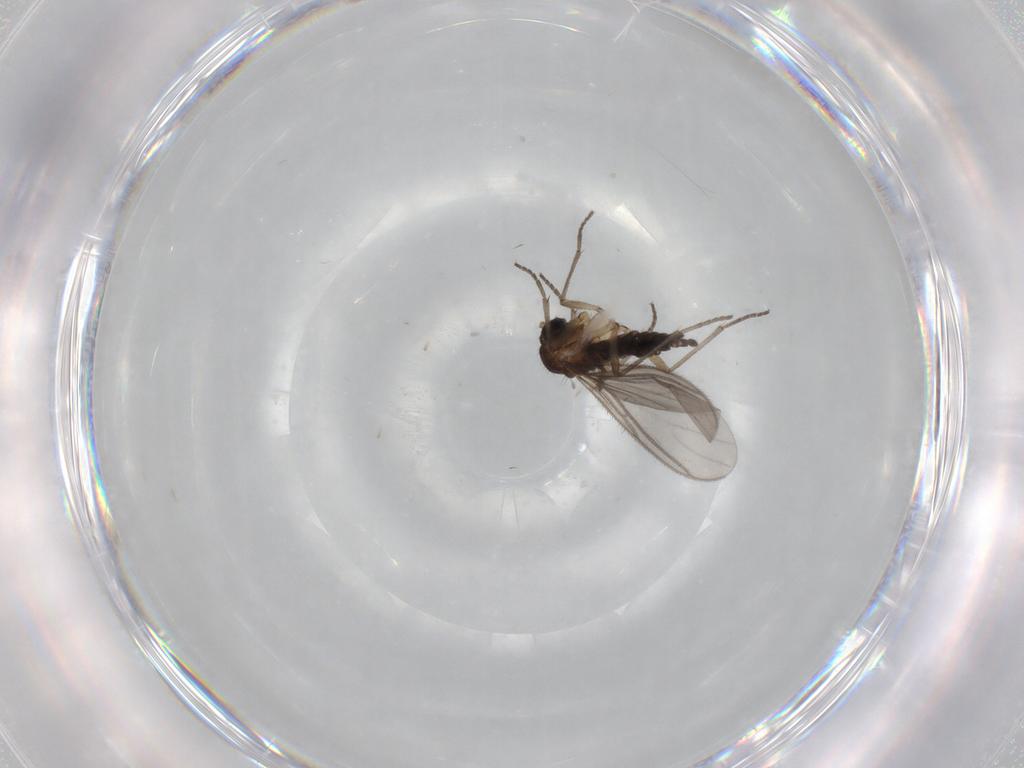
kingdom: Animalia
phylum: Arthropoda
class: Insecta
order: Diptera
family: Sciaridae
